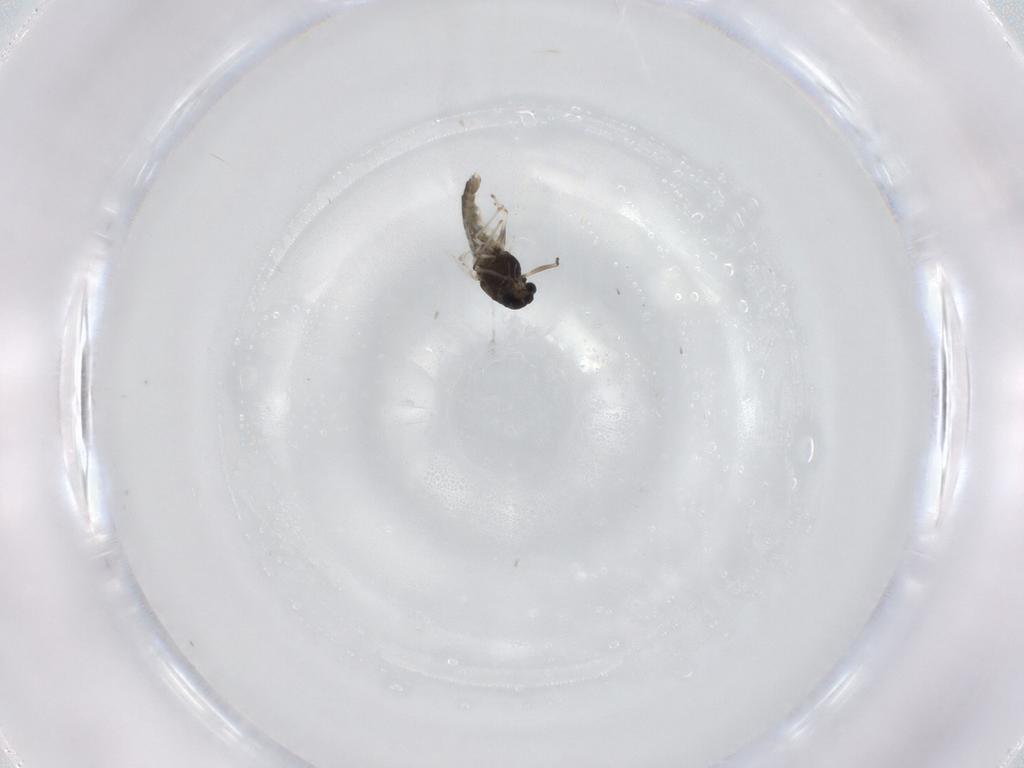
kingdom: Animalia
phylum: Arthropoda
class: Insecta
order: Diptera
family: Chironomidae
